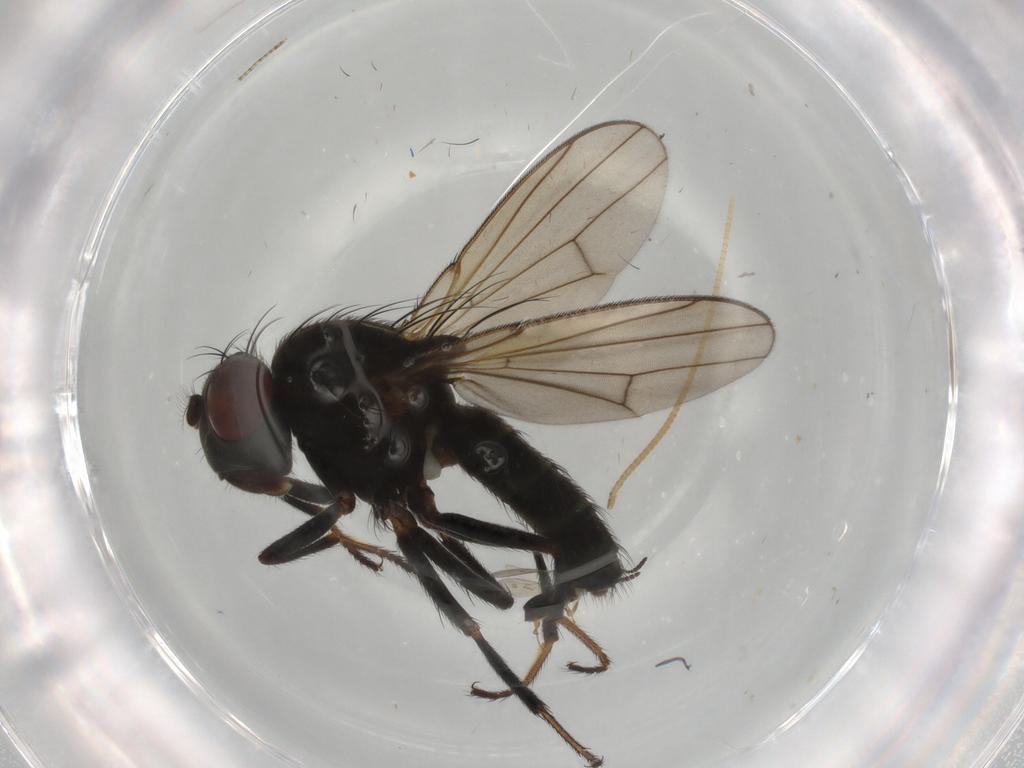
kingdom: Animalia
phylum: Arthropoda
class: Insecta
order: Diptera
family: Ephydridae
